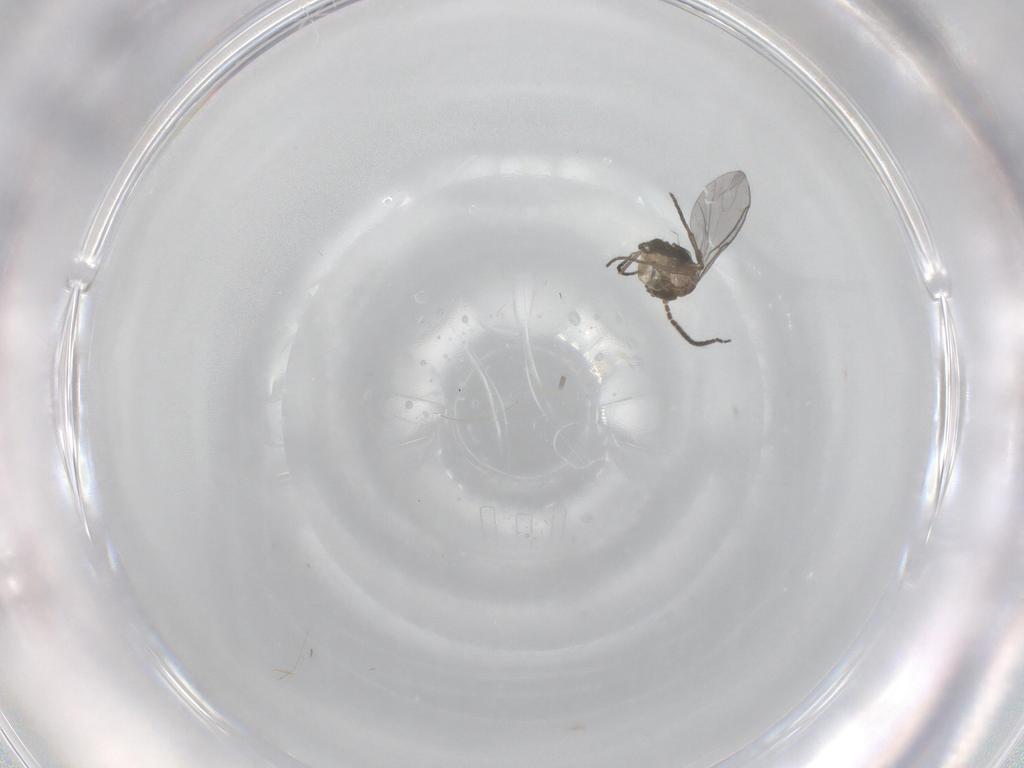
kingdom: Animalia
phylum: Arthropoda
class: Insecta
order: Diptera
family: Sciaridae
